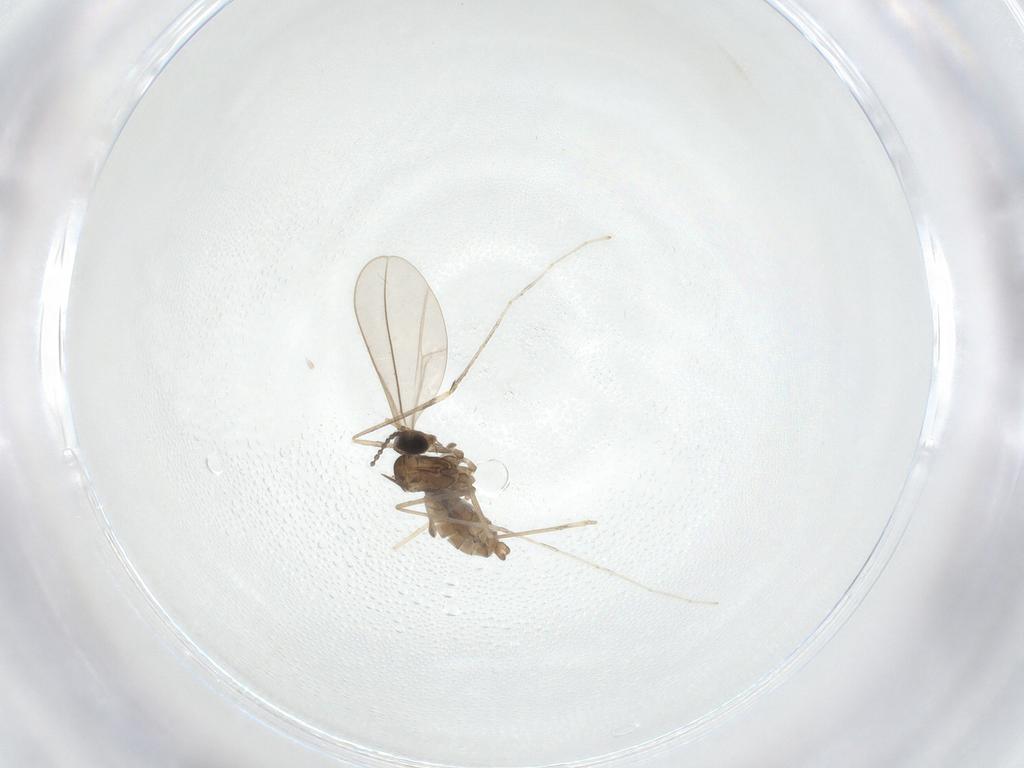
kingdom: Animalia
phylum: Arthropoda
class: Insecta
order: Diptera
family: Cecidomyiidae
